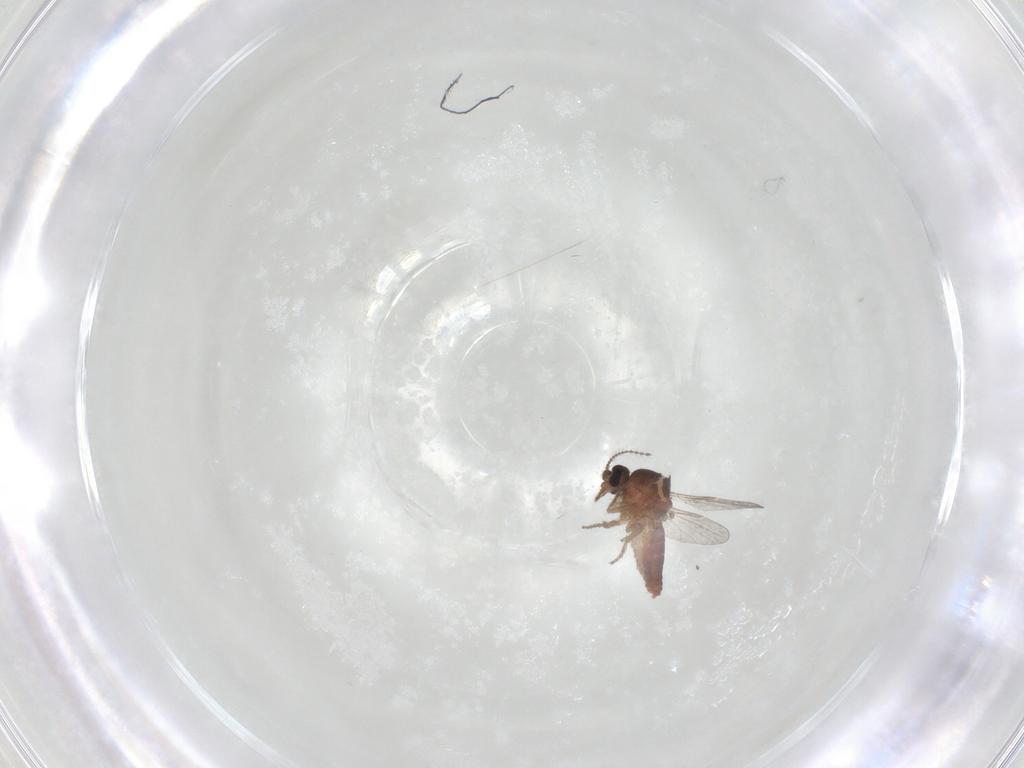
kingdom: Animalia
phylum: Arthropoda
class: Insecta
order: Diptera
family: Ceratopogonidae
